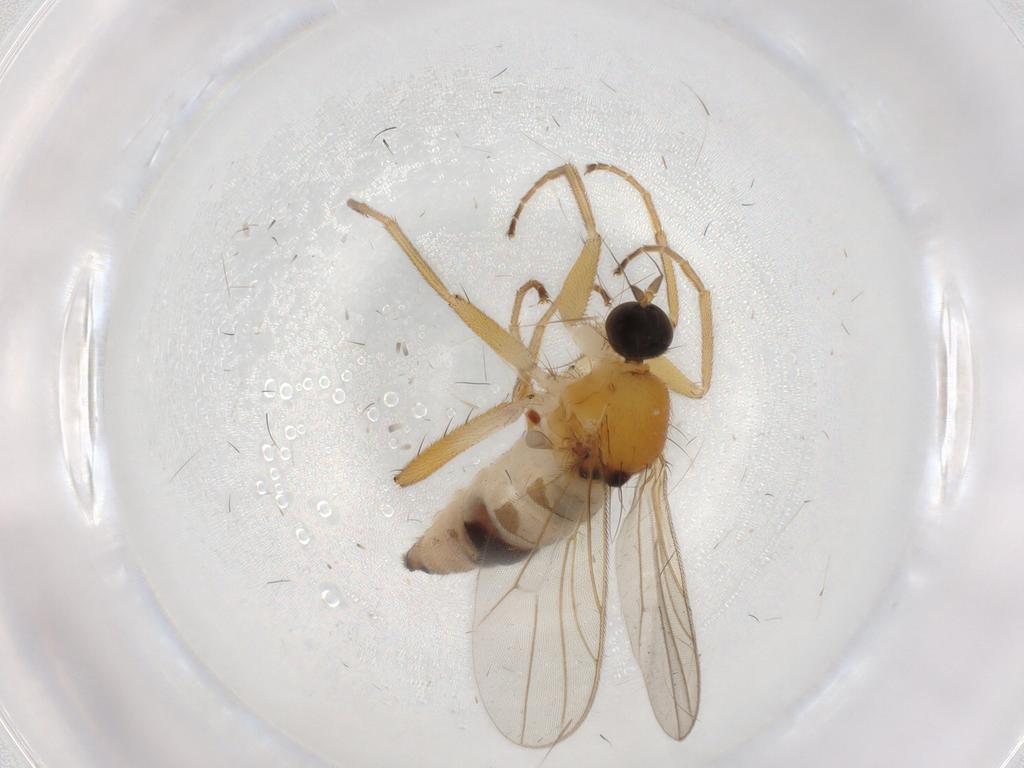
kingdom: Animalia
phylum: Arthropoda
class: Insecta
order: Diptera
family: Hybotidae
